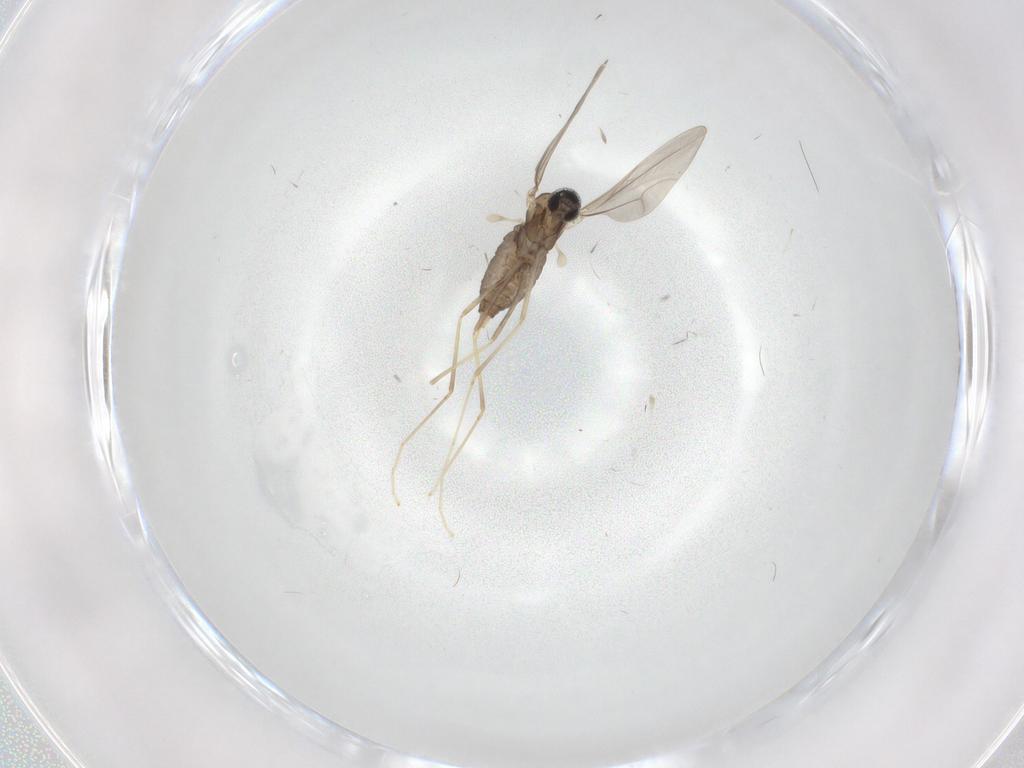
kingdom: Animalia
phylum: Arthropoda
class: Insecta
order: Diptera
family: Cecidomyiidae
